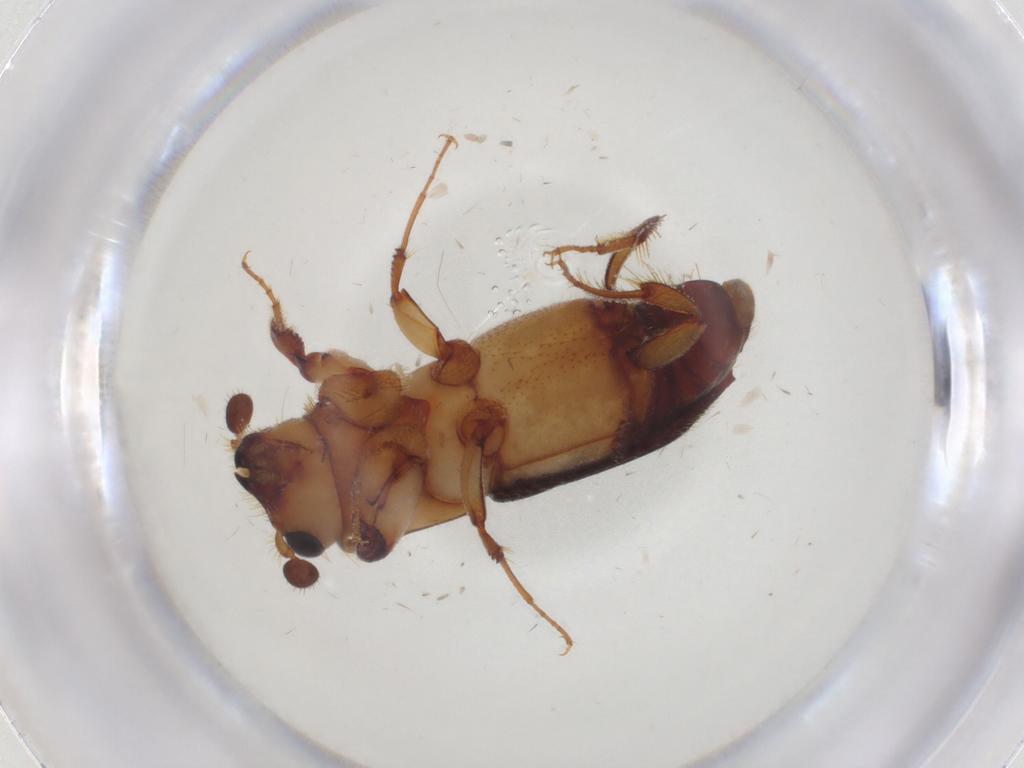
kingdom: Animalia
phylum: Arthropoda
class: Insecta
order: Coleoptera
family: Curculionidae
